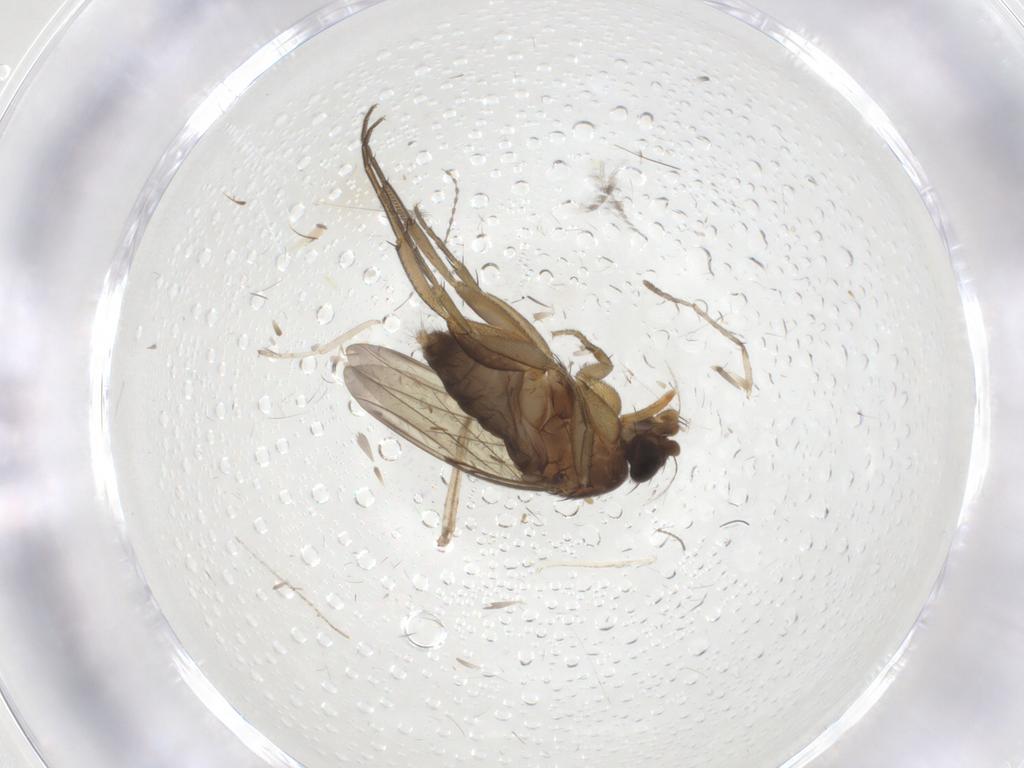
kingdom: Animalia
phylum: Arthropoda
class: Insecta
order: Diptera
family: Phoridae
